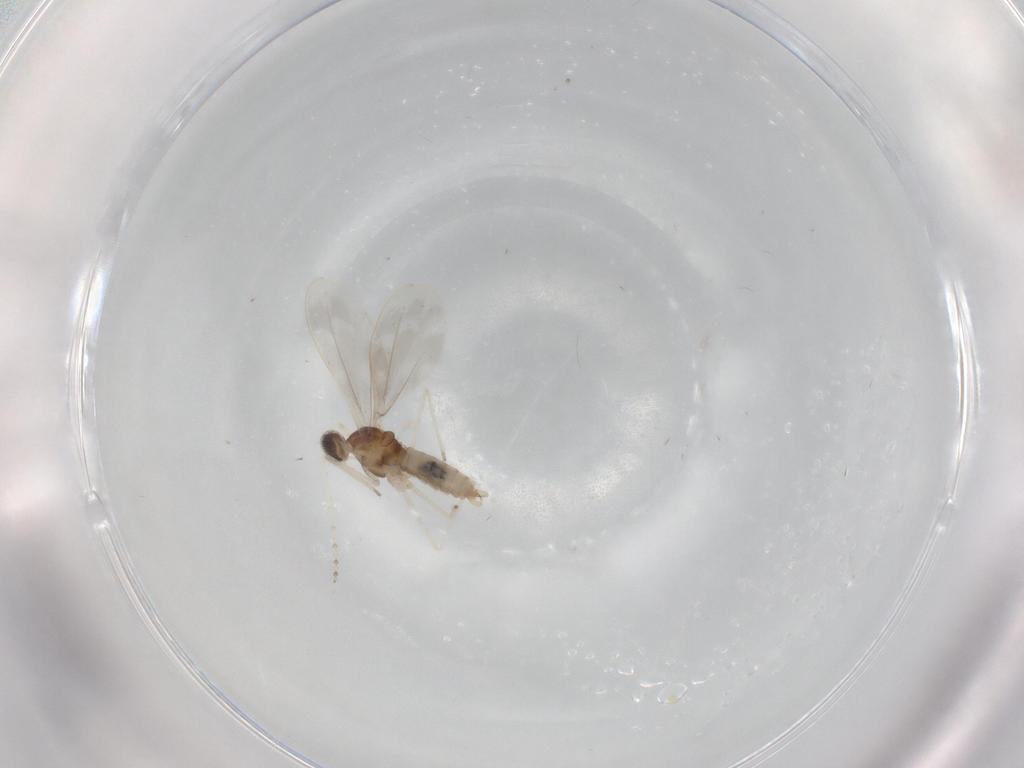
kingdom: Animalia
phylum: Arthropoda
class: Insecta
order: Diptera
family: Cecidomyiidae
